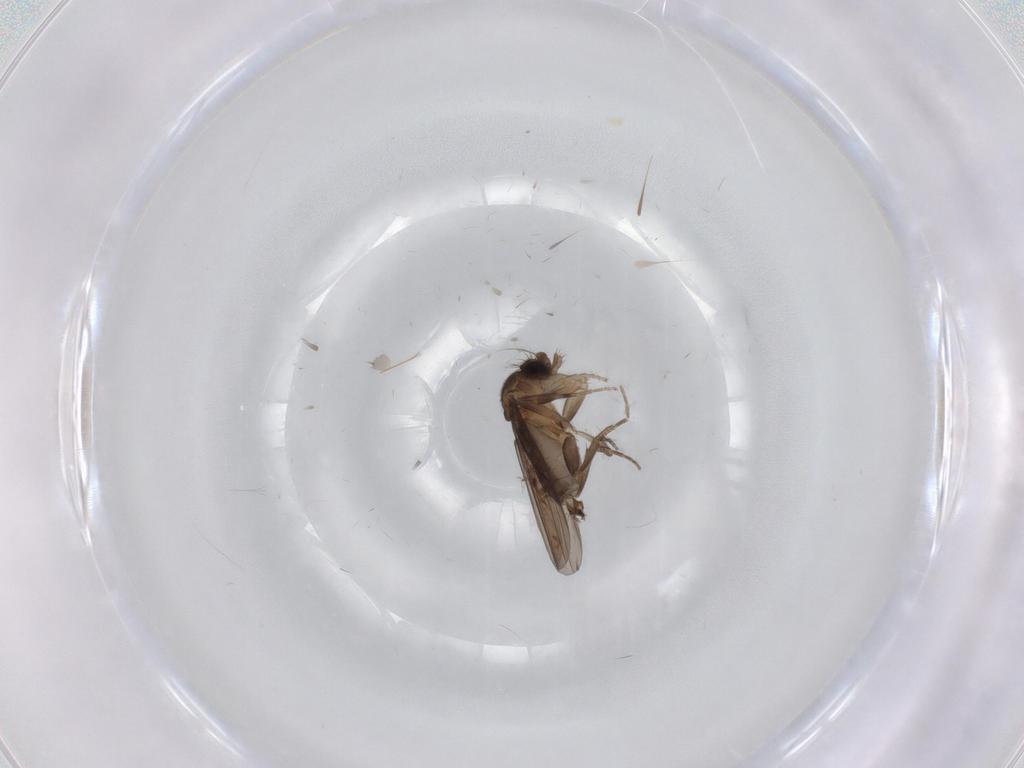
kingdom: Animalia
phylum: Arthropoda
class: Insecta
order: Diptera
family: Phoridae
